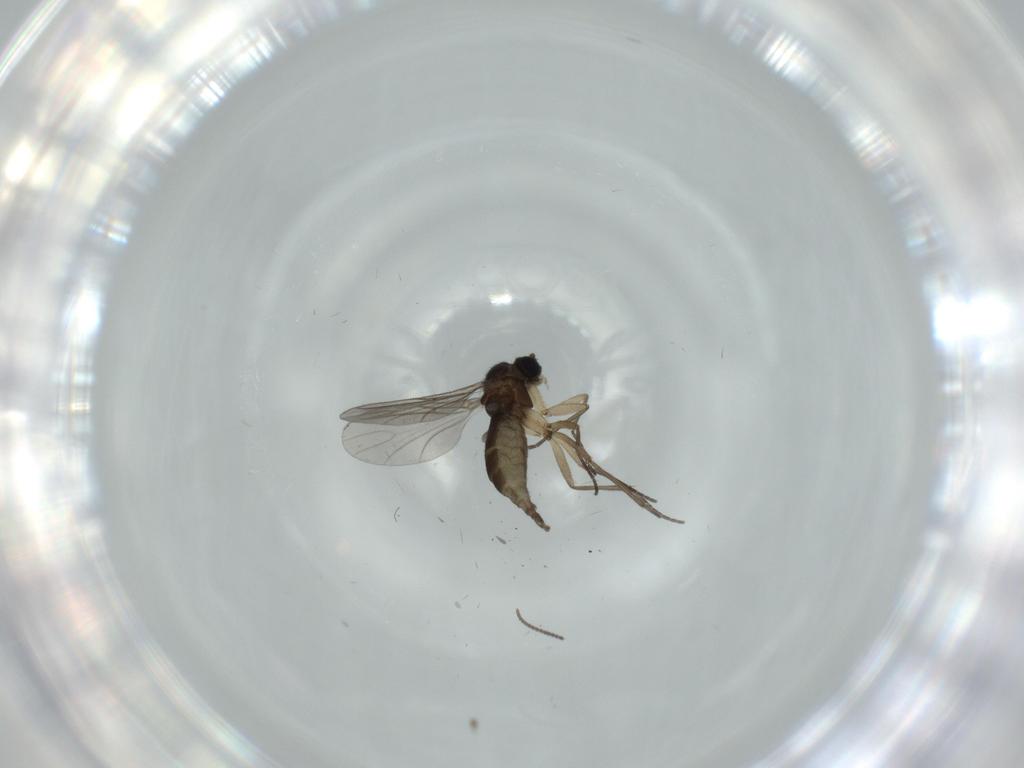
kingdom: Animalia
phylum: Arthropoda
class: Insecta
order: Diptera
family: Sciaridae
